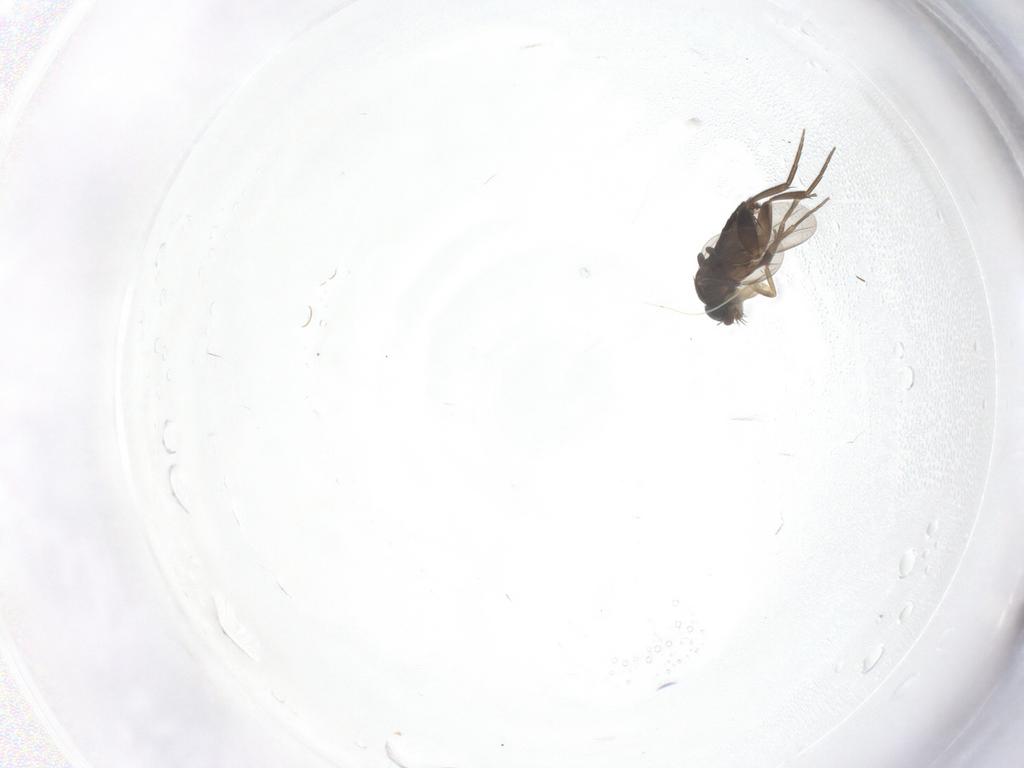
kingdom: Animalia
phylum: Arthropoda
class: Insecta
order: Diptera
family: Phoridae
